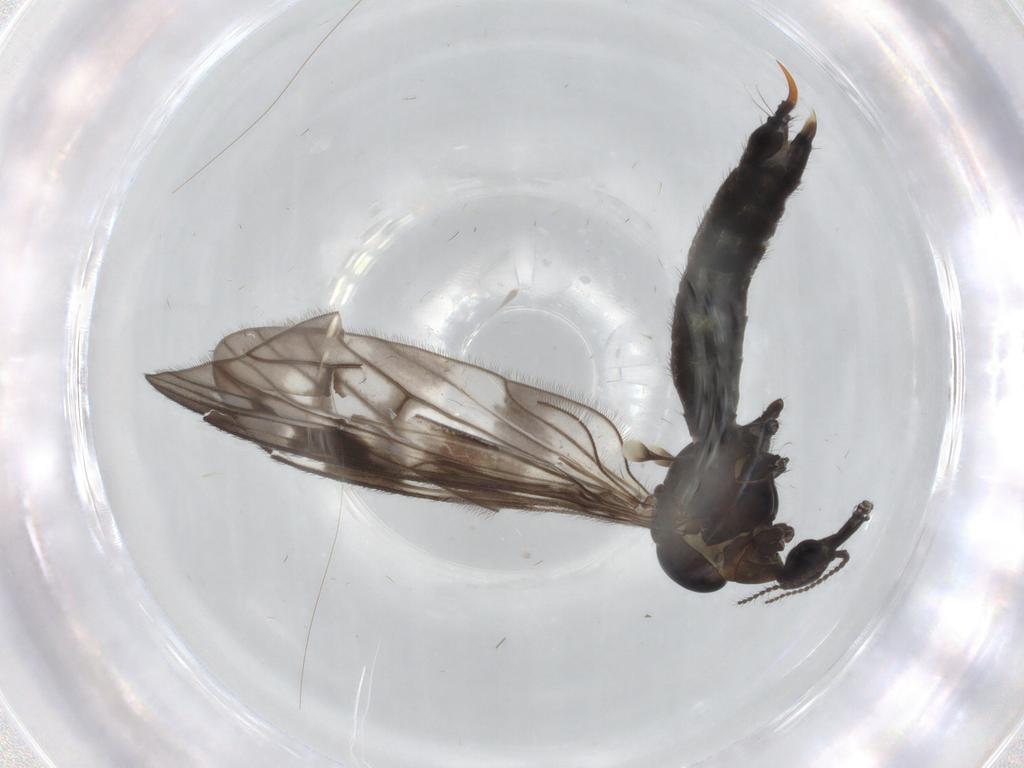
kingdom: Animalia
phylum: Arthropoda
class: Insecta
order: Diptera
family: Limoniidae
